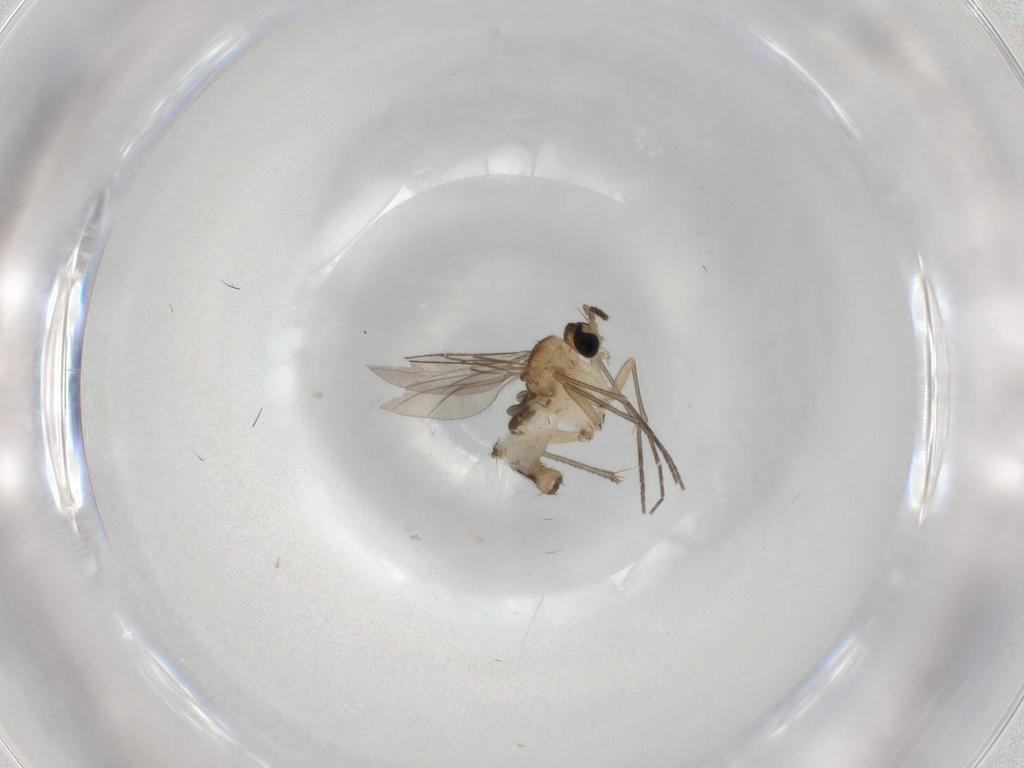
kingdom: Animalia
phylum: Arthropoda
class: Insecta
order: Diptera
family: Sciaridae
